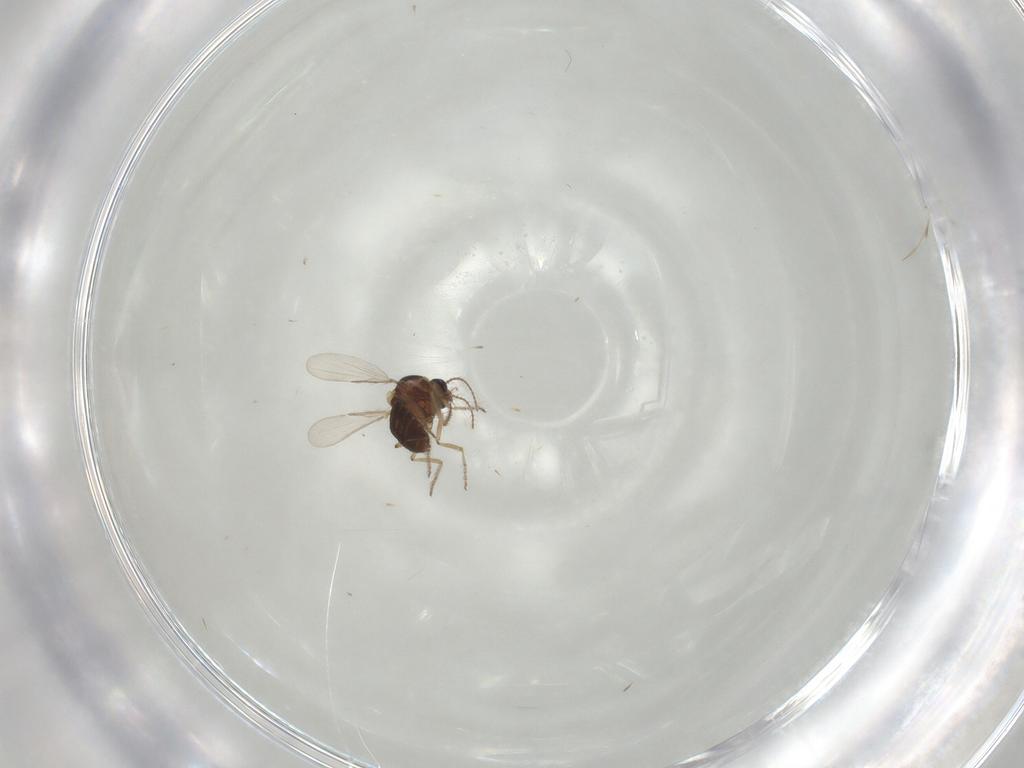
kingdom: Animalia
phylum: Arthropoda
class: Insecta
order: Diptera
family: Ceratopogonidae
